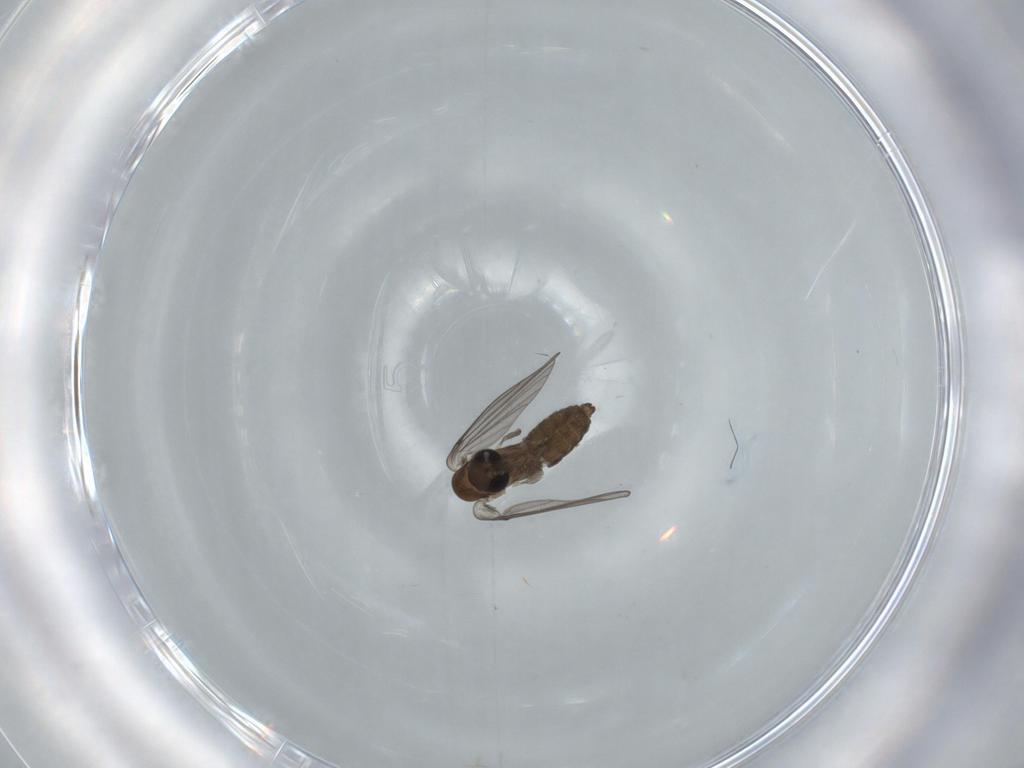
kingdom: Animalia
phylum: Arthropoda
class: Insecta
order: Diptera
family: Psychodidae
